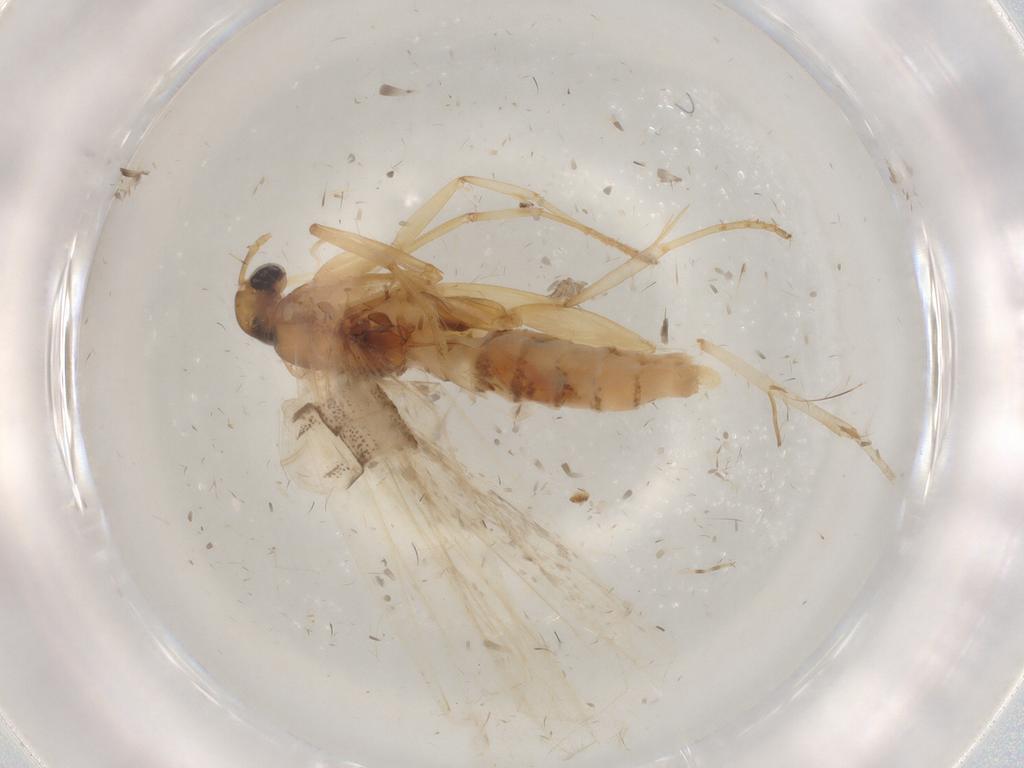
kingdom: Animalia
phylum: Arthropoda
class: Insecta
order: Lepidoptera
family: Gelechiidae
